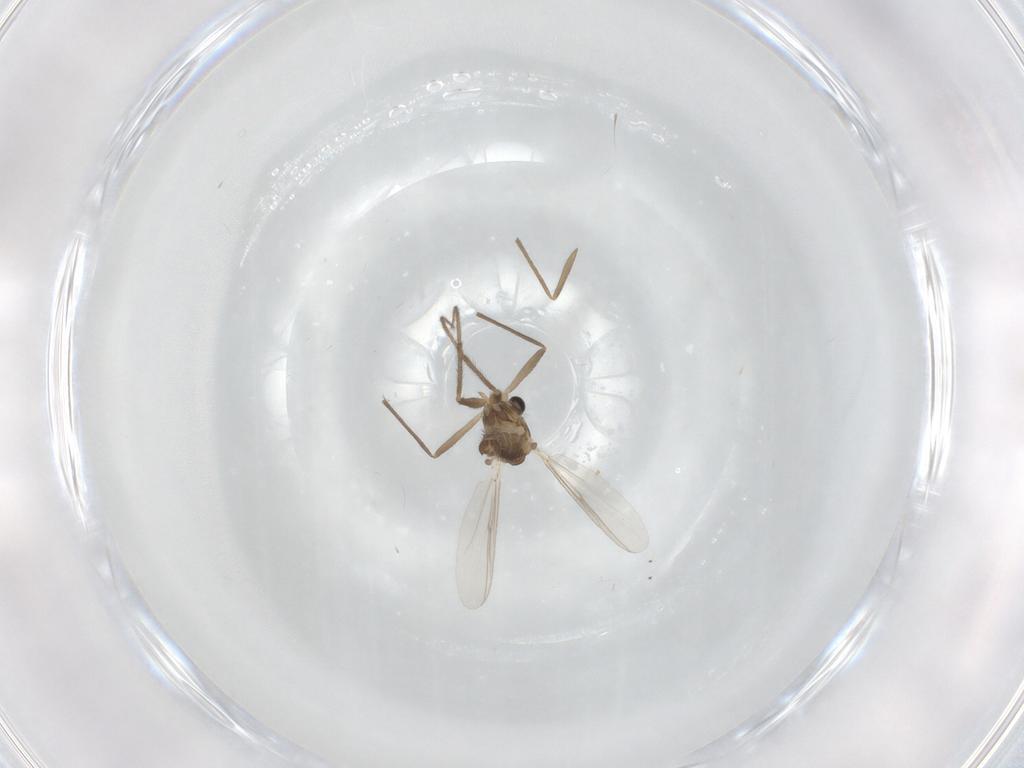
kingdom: Animalia
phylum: Arthropoda
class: Insecta
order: Diptera
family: Chironomidae
